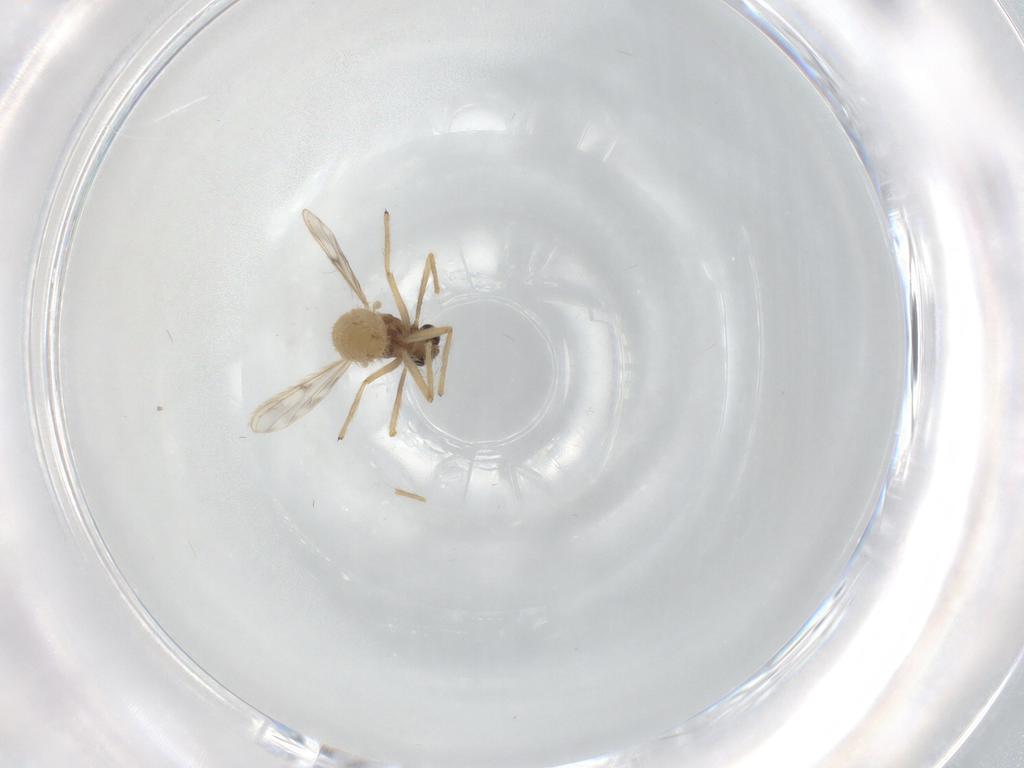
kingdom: Animalia
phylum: Arthropoda
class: Insecta
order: Diptera
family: Chironomidae
